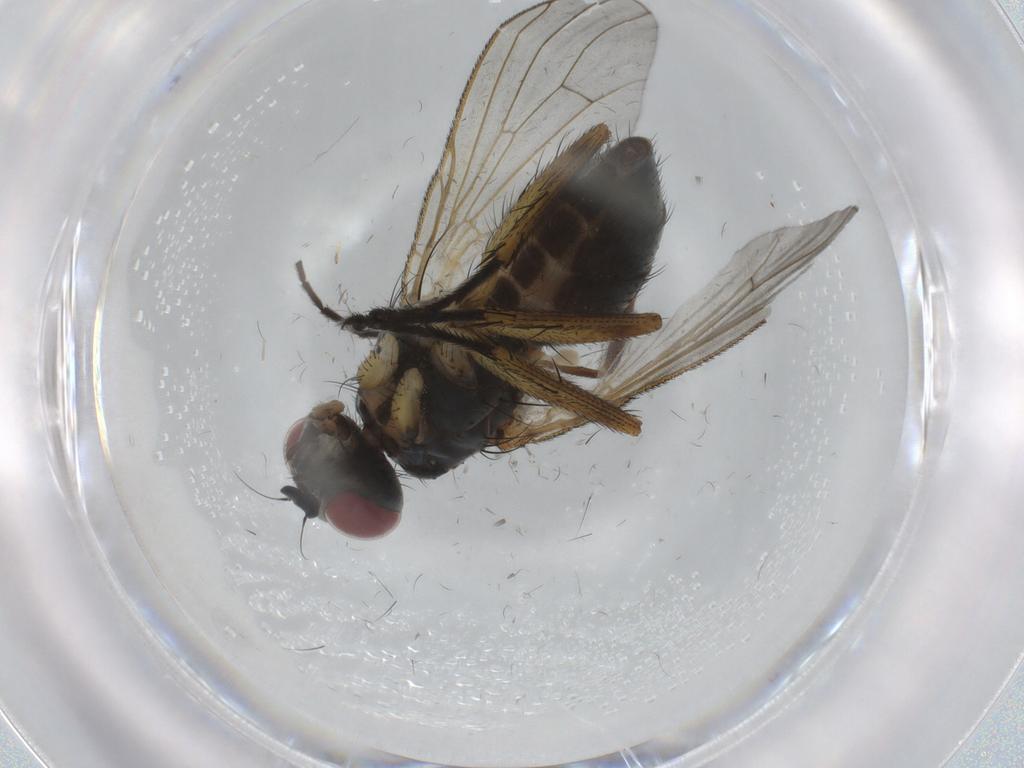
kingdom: Animalia
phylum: Arthropoda
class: Insecta
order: Diptera
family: Chironomidae
